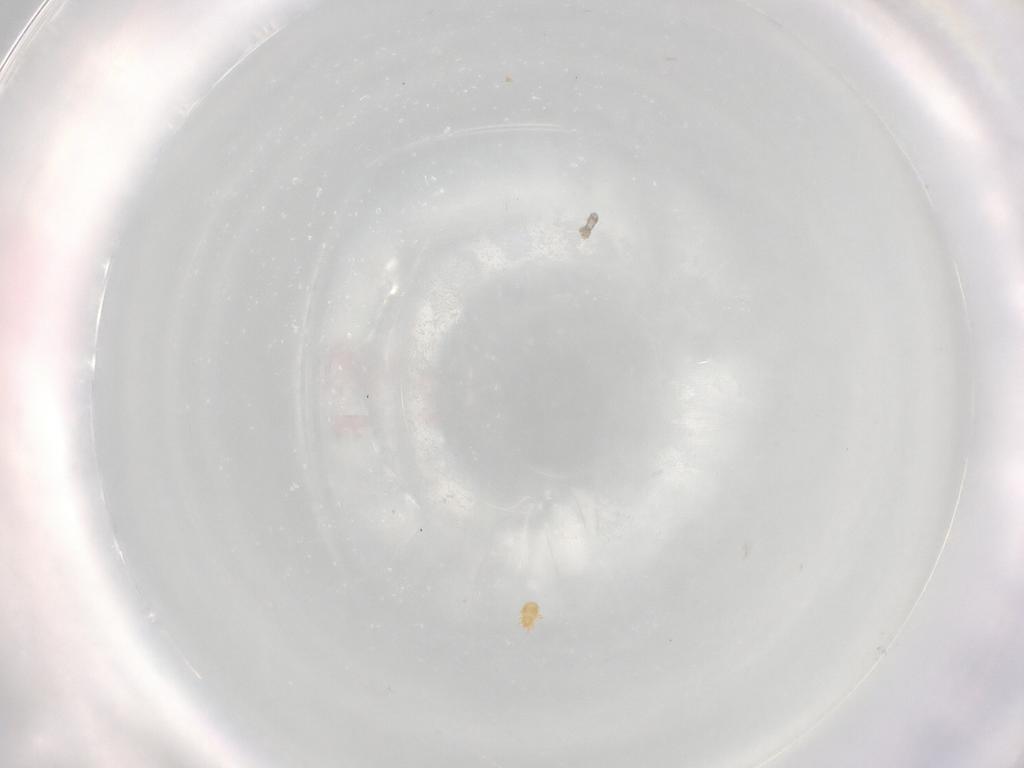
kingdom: Animalia
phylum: Arthropoda
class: Arachnida
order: Sarcoptiformes
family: Brachychthoniidae
